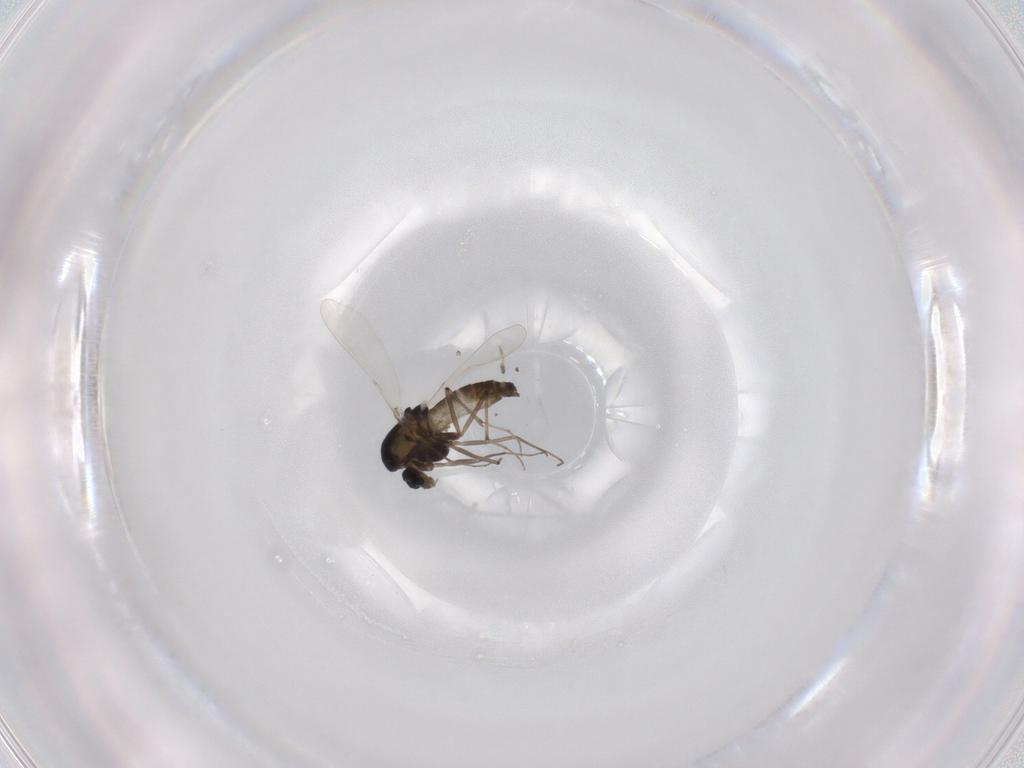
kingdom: Animalia
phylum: Arthropoda
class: Insecta
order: Diptera
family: Chironomidae
